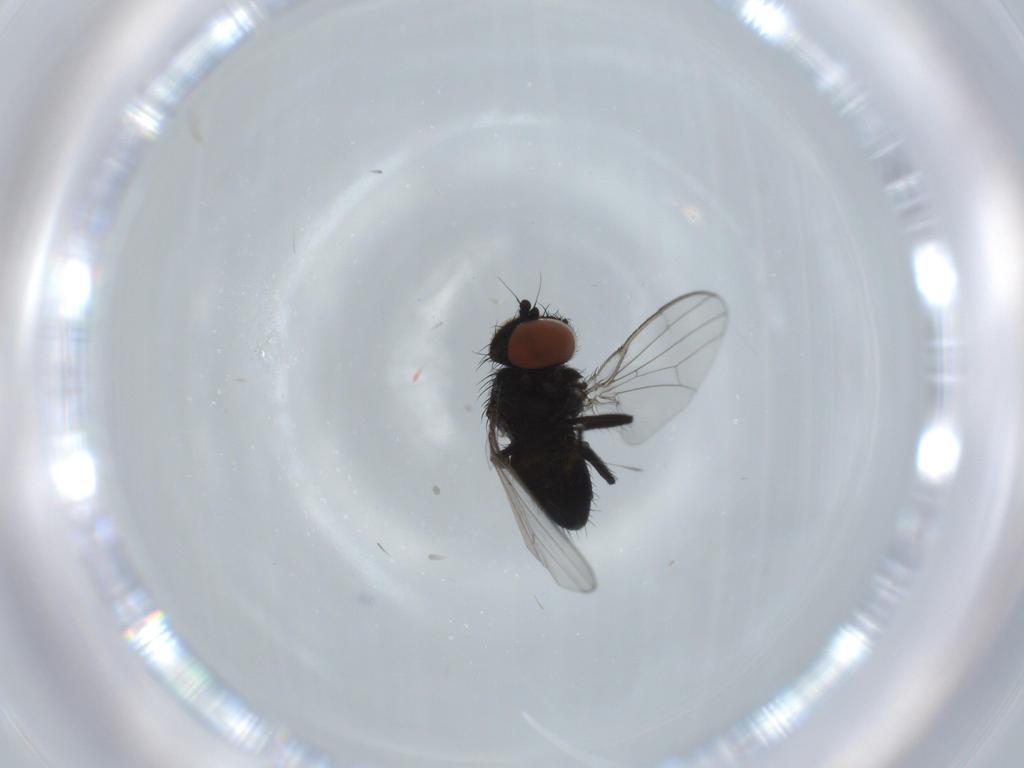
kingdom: Animalia
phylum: Arthropoda
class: Insecta
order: Diptera
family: Milichiidae
